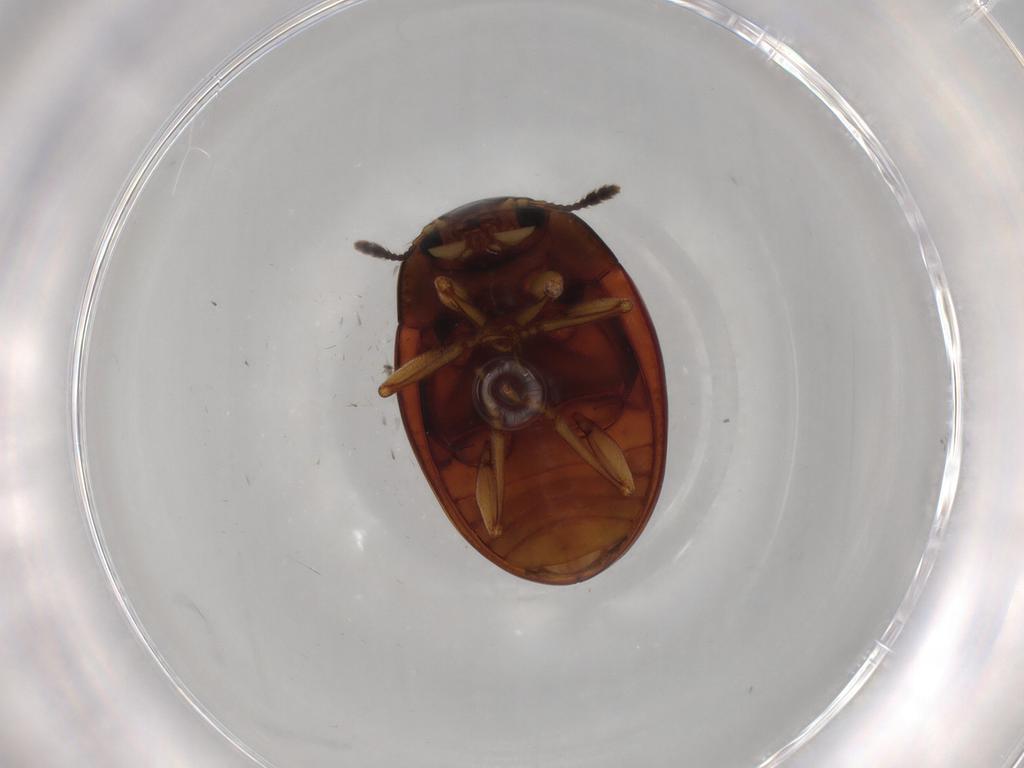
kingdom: Animalia
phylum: Arthropoda
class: Insecta
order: Coleoptera
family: Erotylidae
